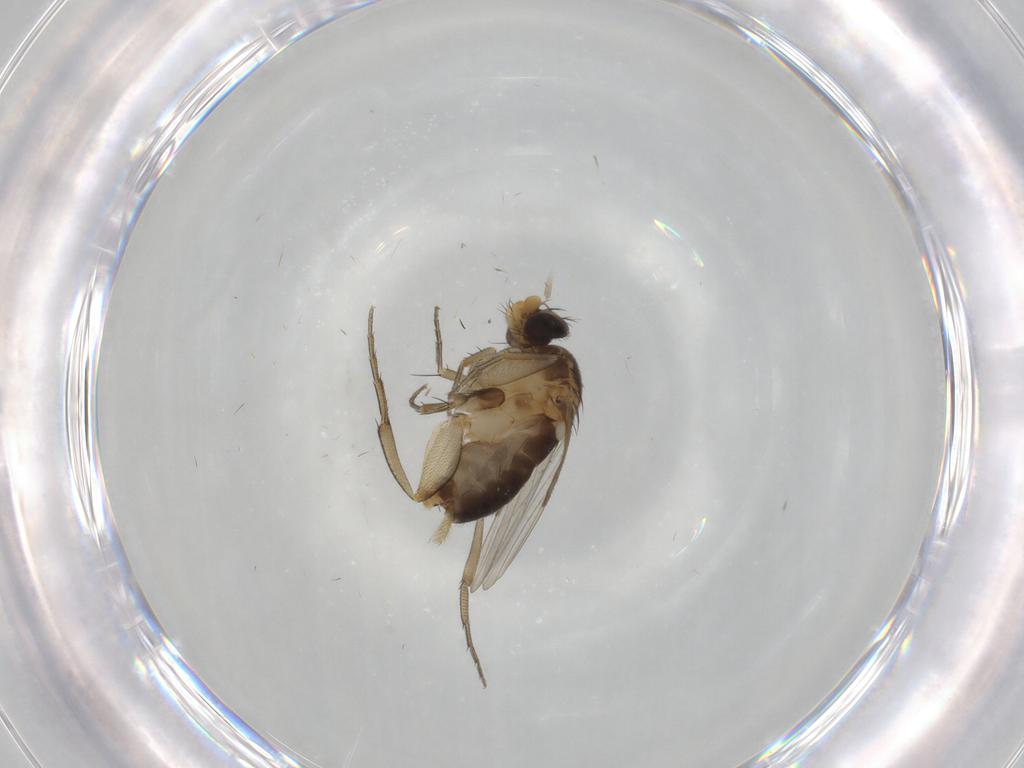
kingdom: Animalia
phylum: Arthropoda
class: Insecta
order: Diptera
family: Phoridae
